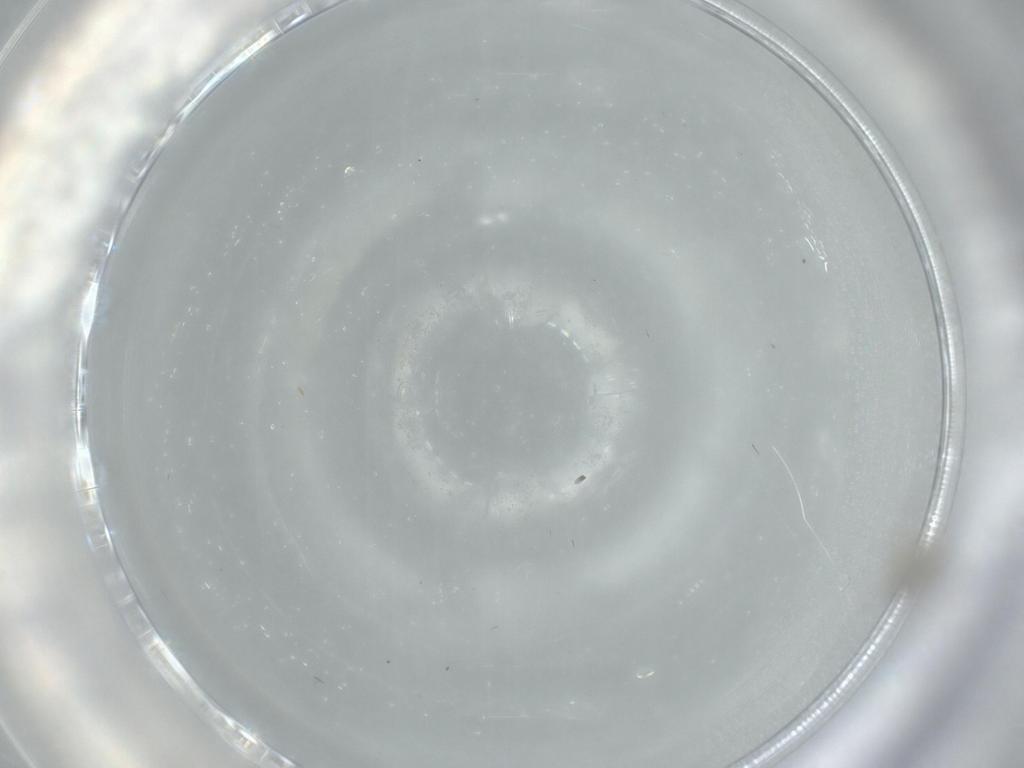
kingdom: Animalia
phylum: Arthropoda
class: Insecta
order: Diptera
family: Cecidomyiidae
